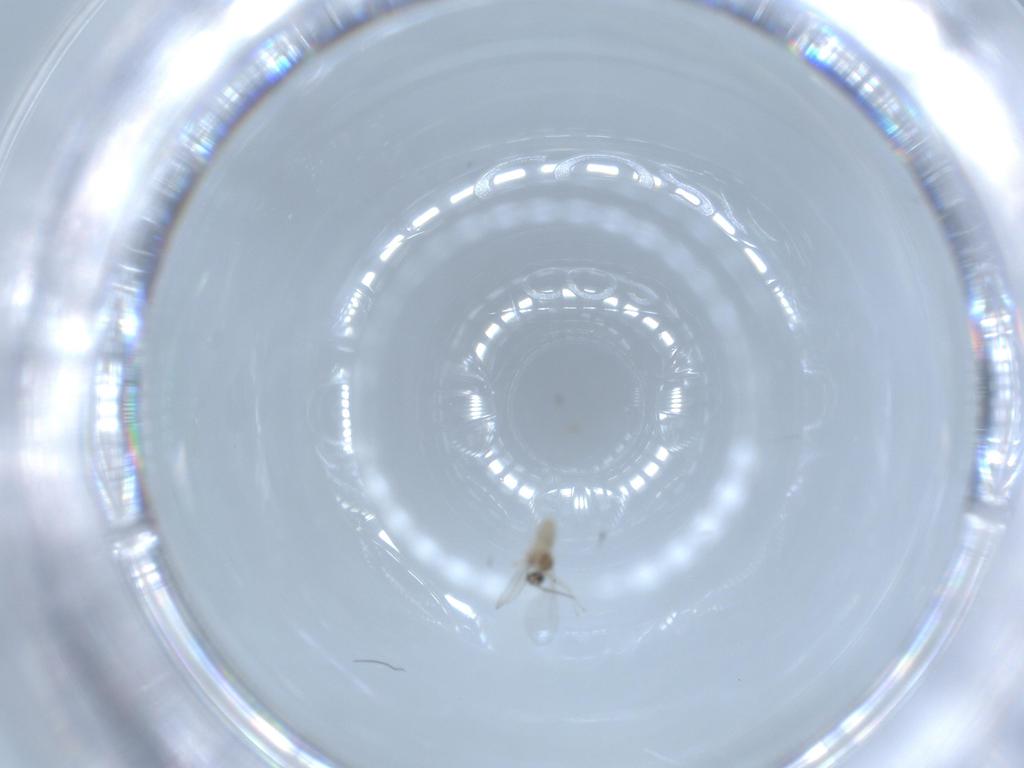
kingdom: Animalia
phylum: Arthropoda
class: Insecta
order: Diptera
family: Cecidomyiidae
